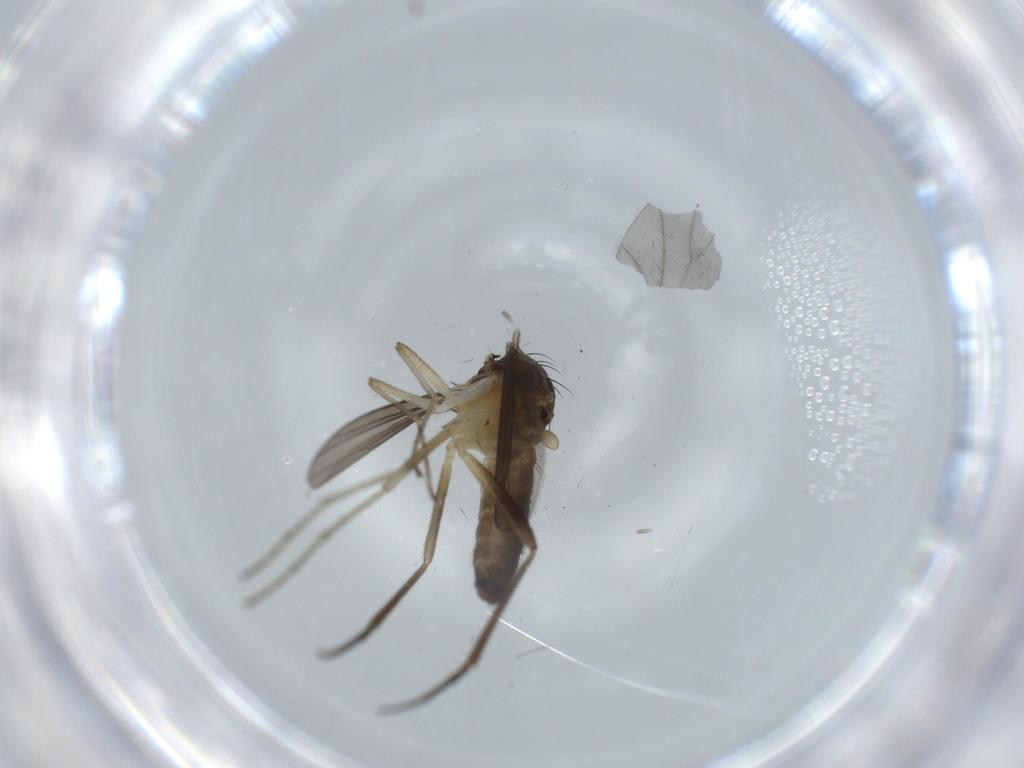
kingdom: Animalia
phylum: Arthropoda
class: Insecta
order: Diptera
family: Dolichopodidae
